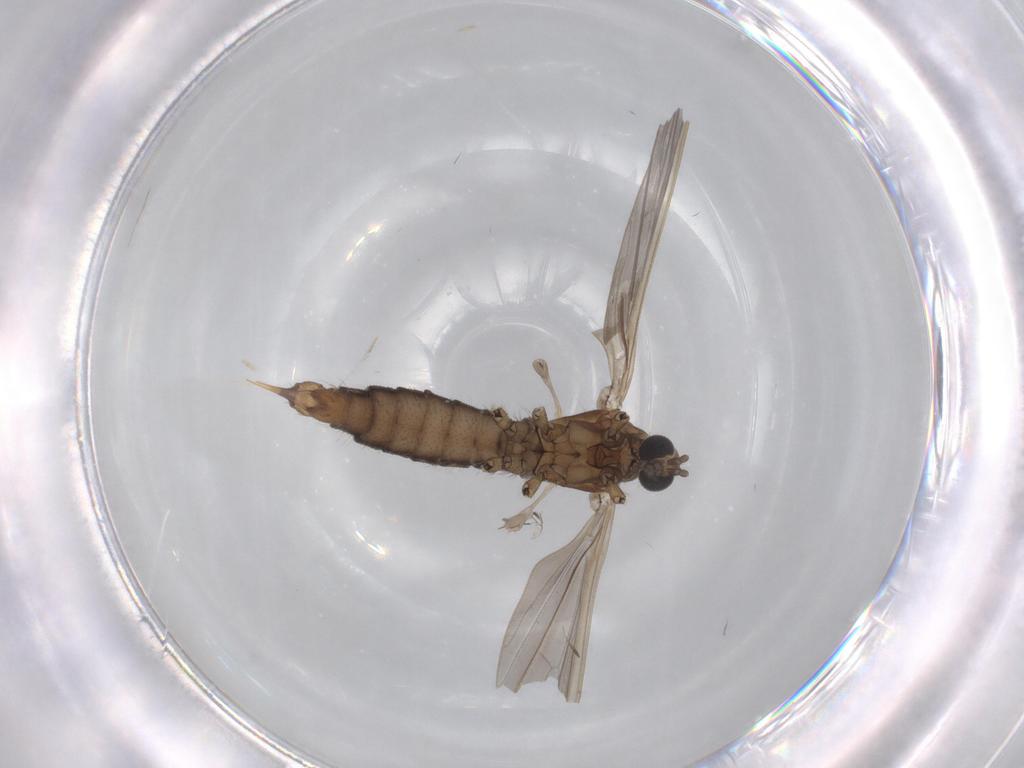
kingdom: Animalia
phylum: Arthropoda
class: Insecta
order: Diptera
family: Limoniidae
